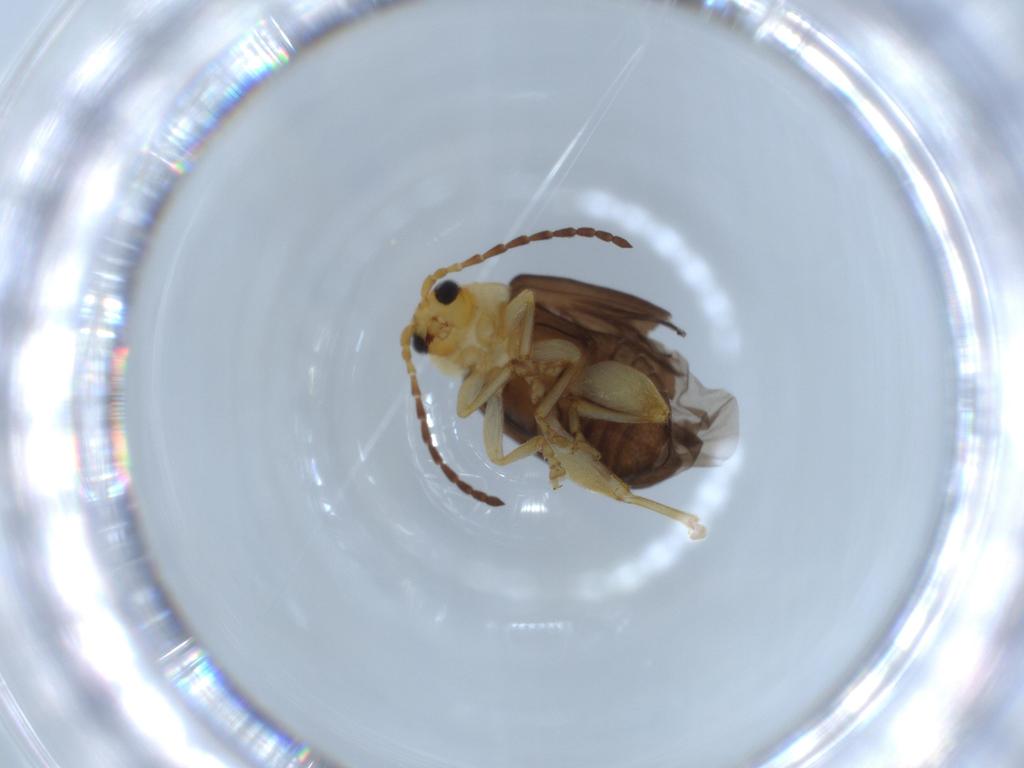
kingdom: Animalia
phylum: Arthropoda
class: Insecta
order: Coleoptera
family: Chrysomelidae
